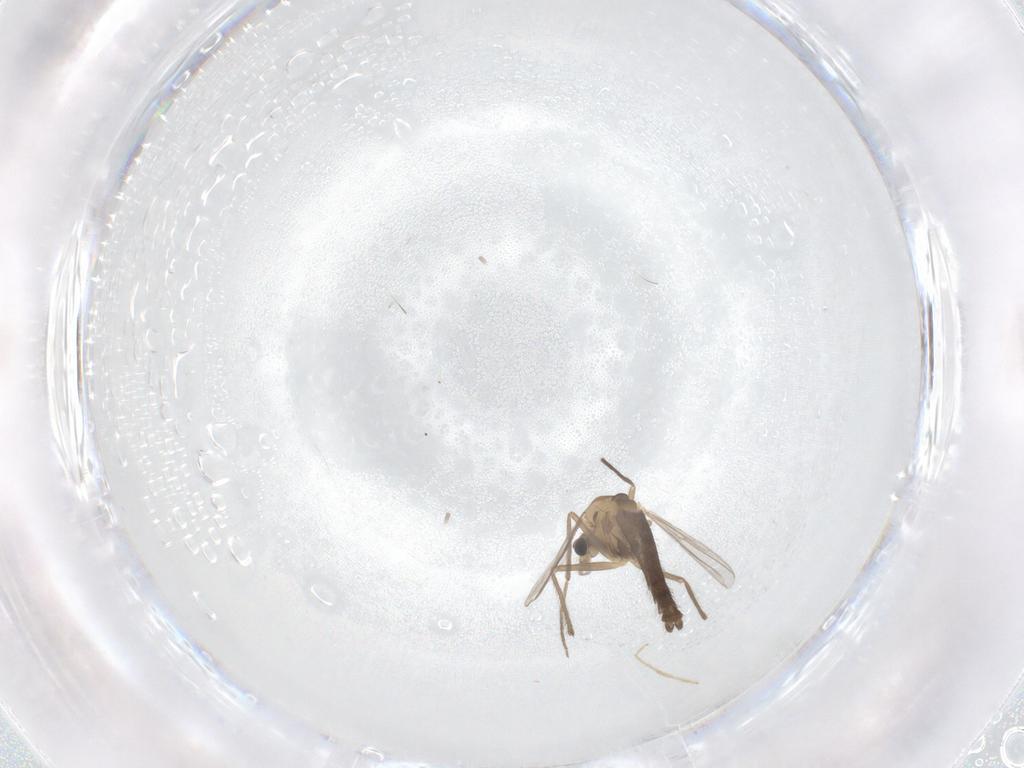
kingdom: Animalia
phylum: Arthropoda
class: Insecta
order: Diptera
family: Chironomidae
